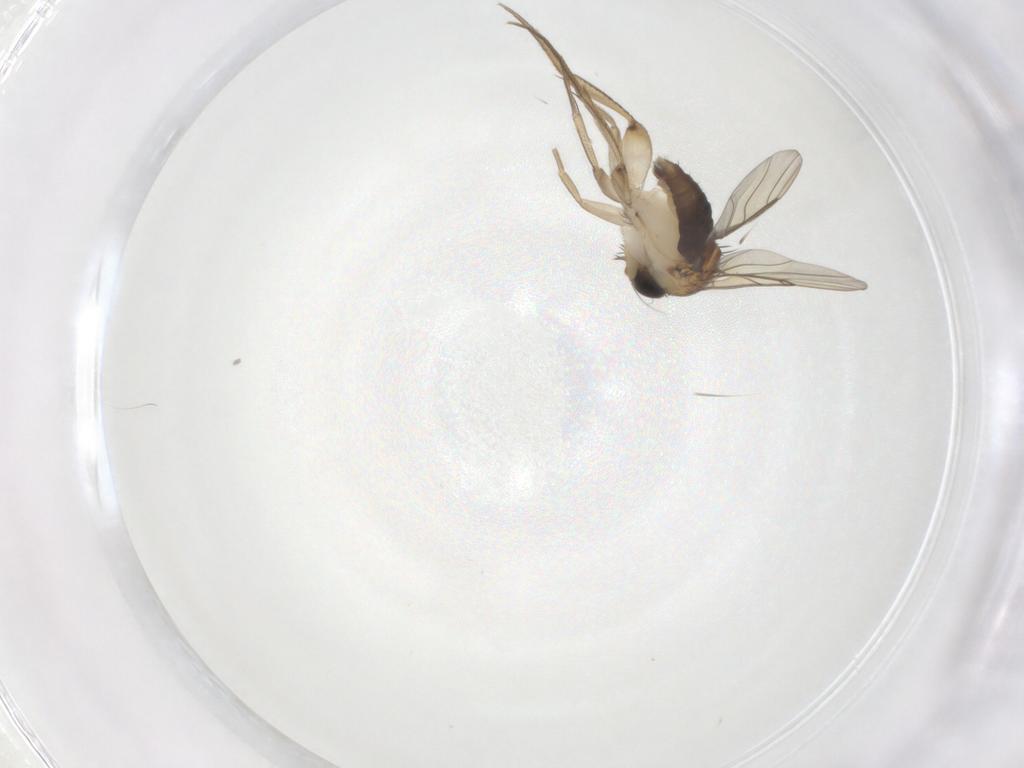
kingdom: Animalia
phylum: Arthropoda
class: Insecta
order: Diptera
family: Phoridae
